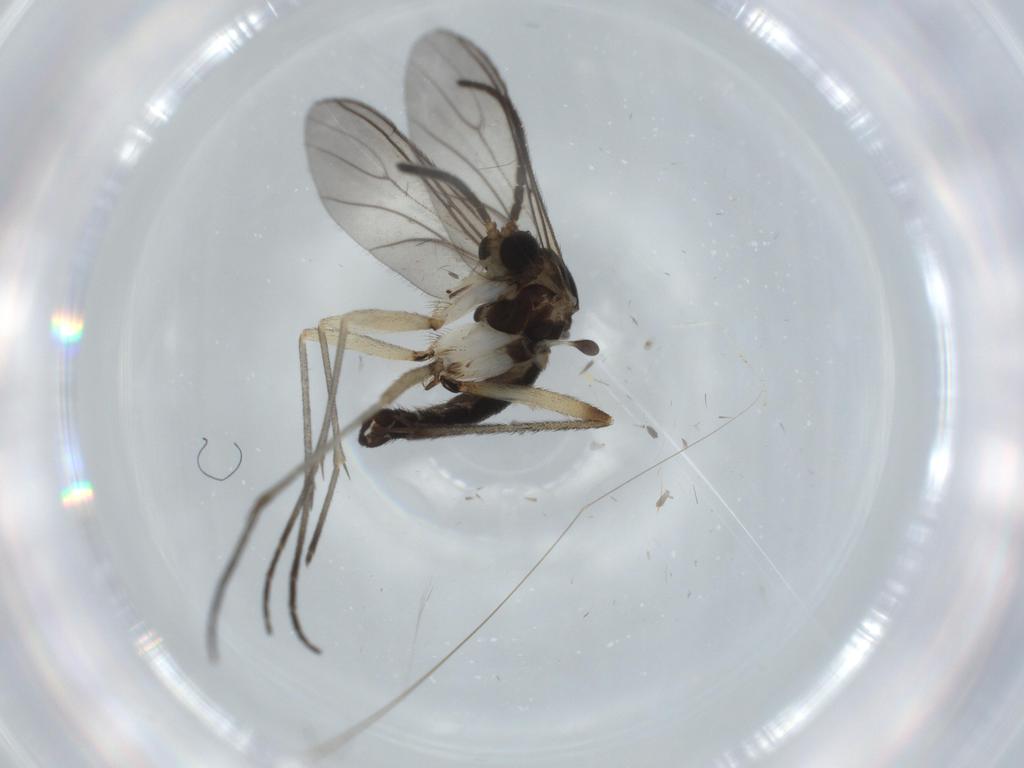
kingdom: Animalia
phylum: Arthropoda
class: Insecta
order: Diptera
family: Sciaridae
